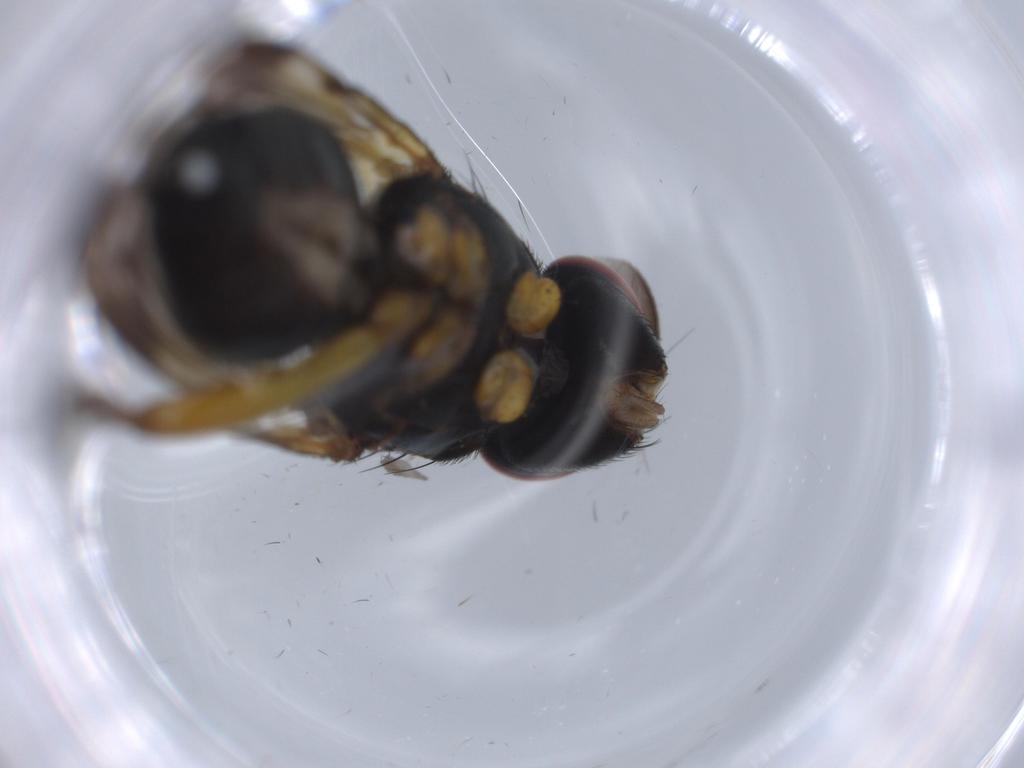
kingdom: Animalia
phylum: Arthropoda
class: Insecta
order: Diptera
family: Calliphoridae
